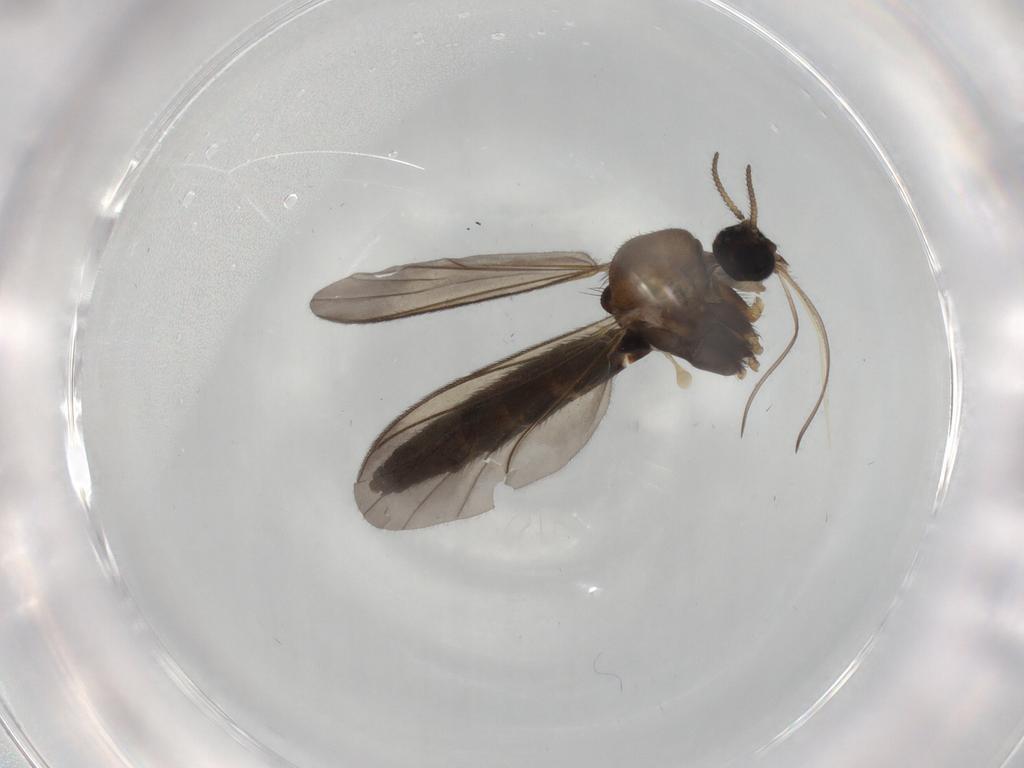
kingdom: Animalia
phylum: Arthropoda
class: Insecta
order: Diptera
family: Keroplatidae
